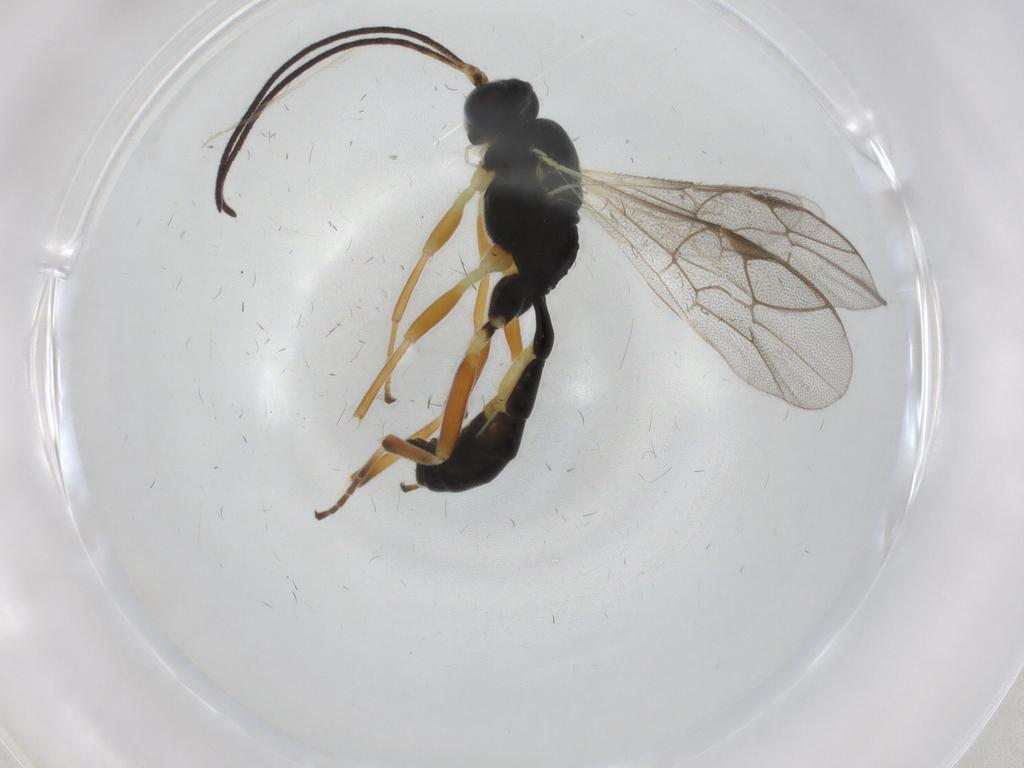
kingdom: Animalia
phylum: Arthropoda
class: Insecta
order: Hymenoptera
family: Ichneumonidae
